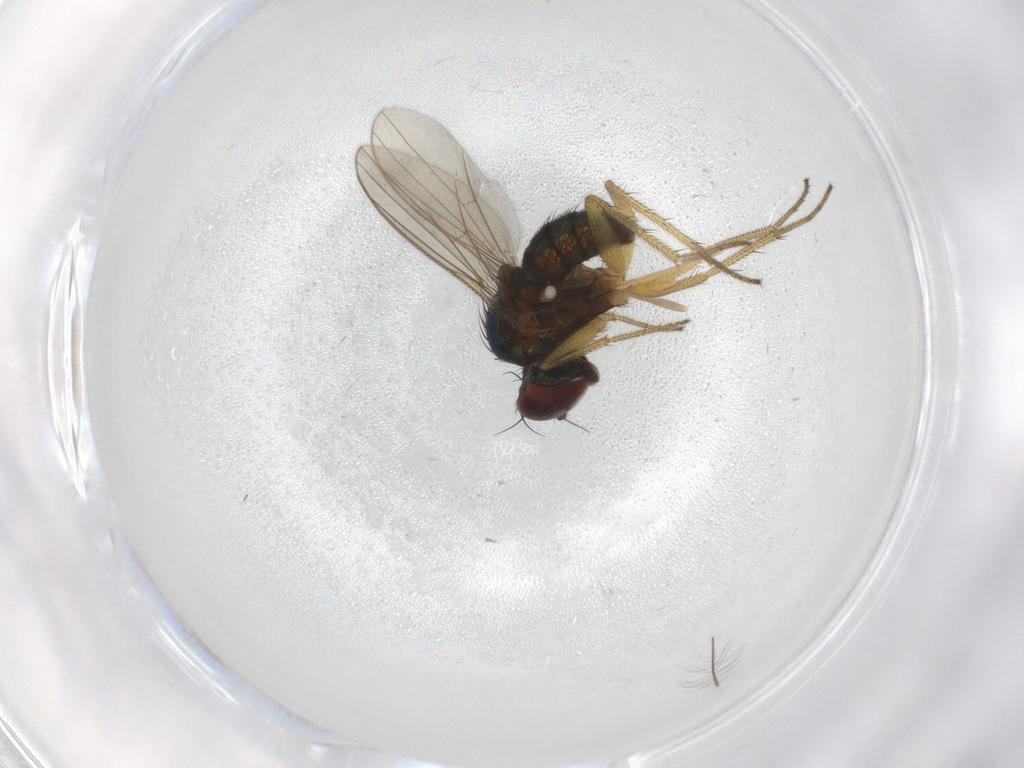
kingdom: Animalia
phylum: Arthropoda
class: Insecta
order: Diptera
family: Dolichopodidae
